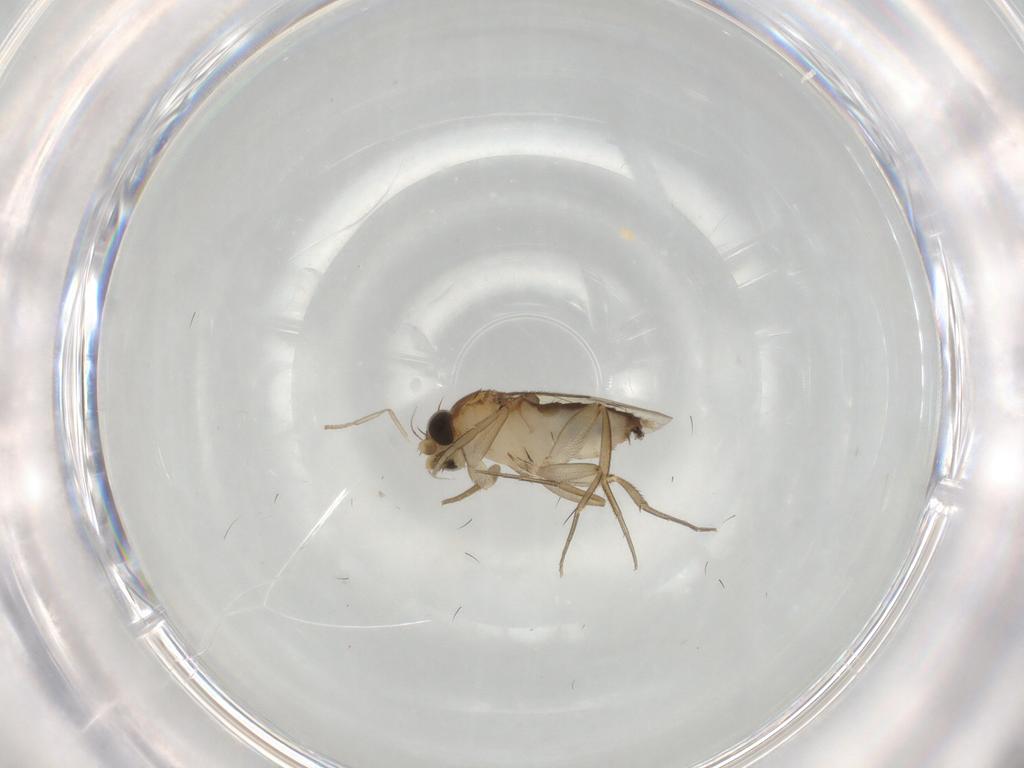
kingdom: Animalia
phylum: Arthropoda
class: Insecta
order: Diptera
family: Phoridae
